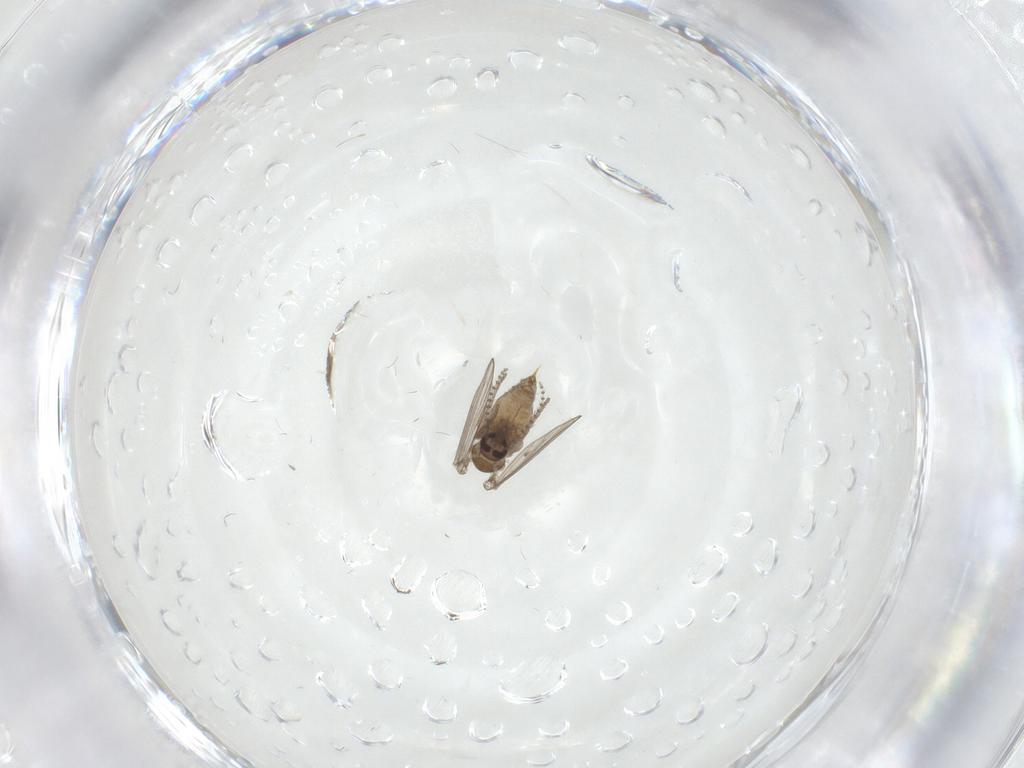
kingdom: Animalia
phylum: Arthropoda
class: Insecta
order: Diptera
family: Psychodidae
